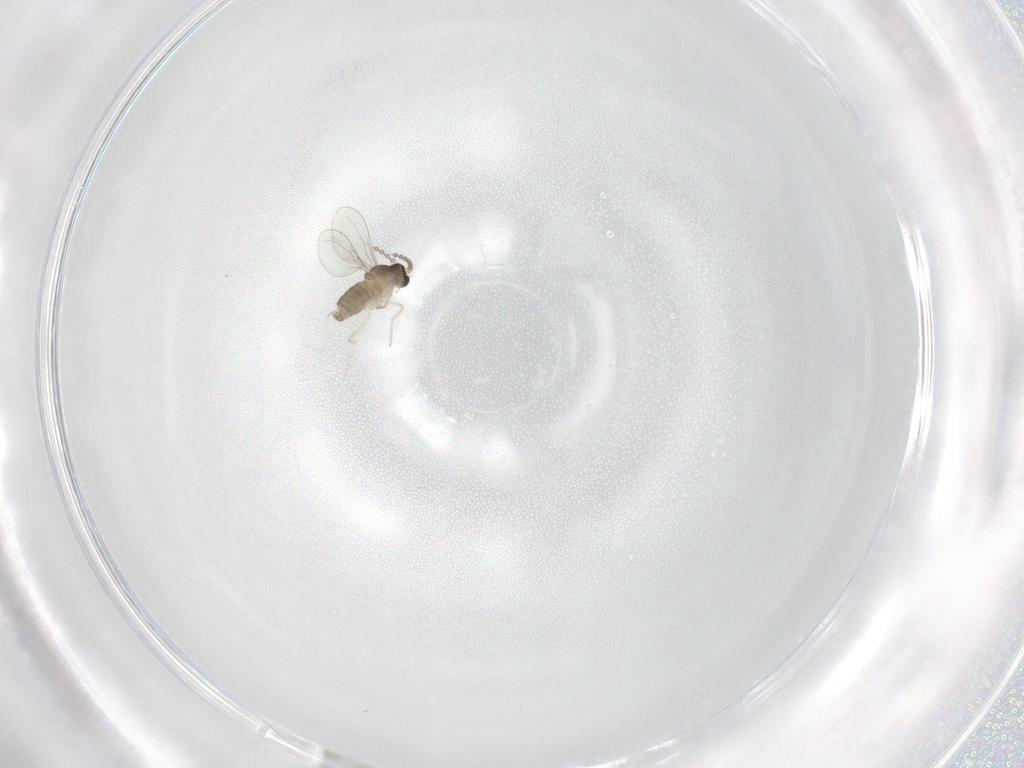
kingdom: Animalia
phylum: Arthropoda
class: Insecta
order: Diptera
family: Cecidomyiidae
